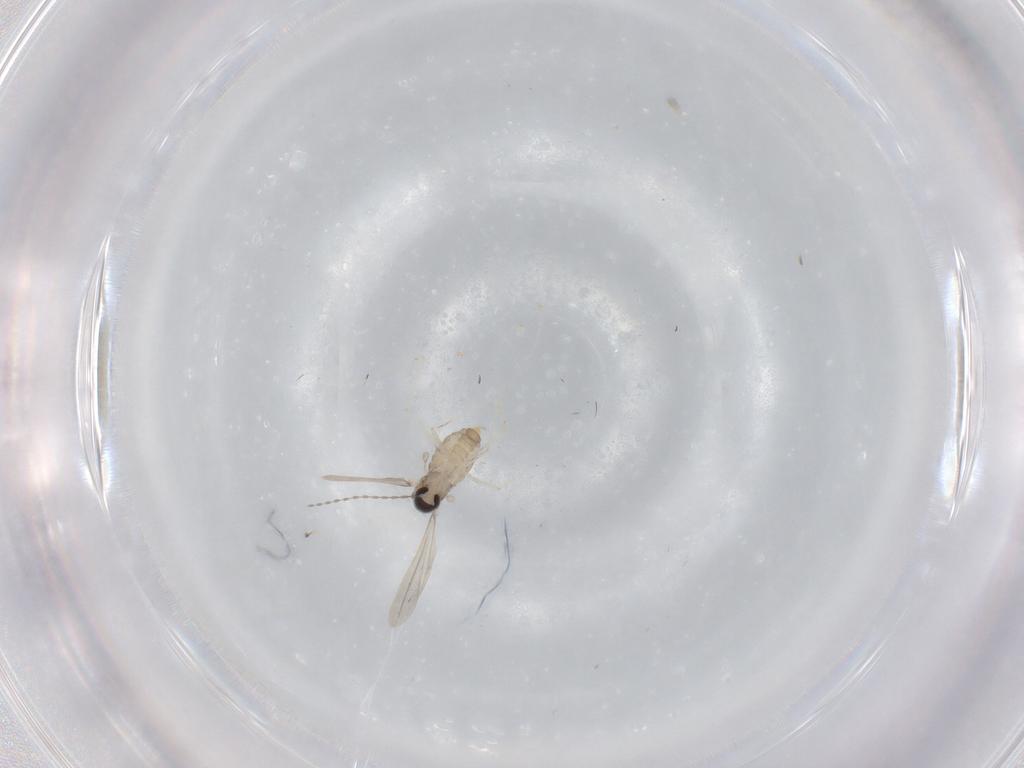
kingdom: Animalia
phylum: Arthropoda
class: Insecta
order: Diptera
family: Cecidomyiidae
